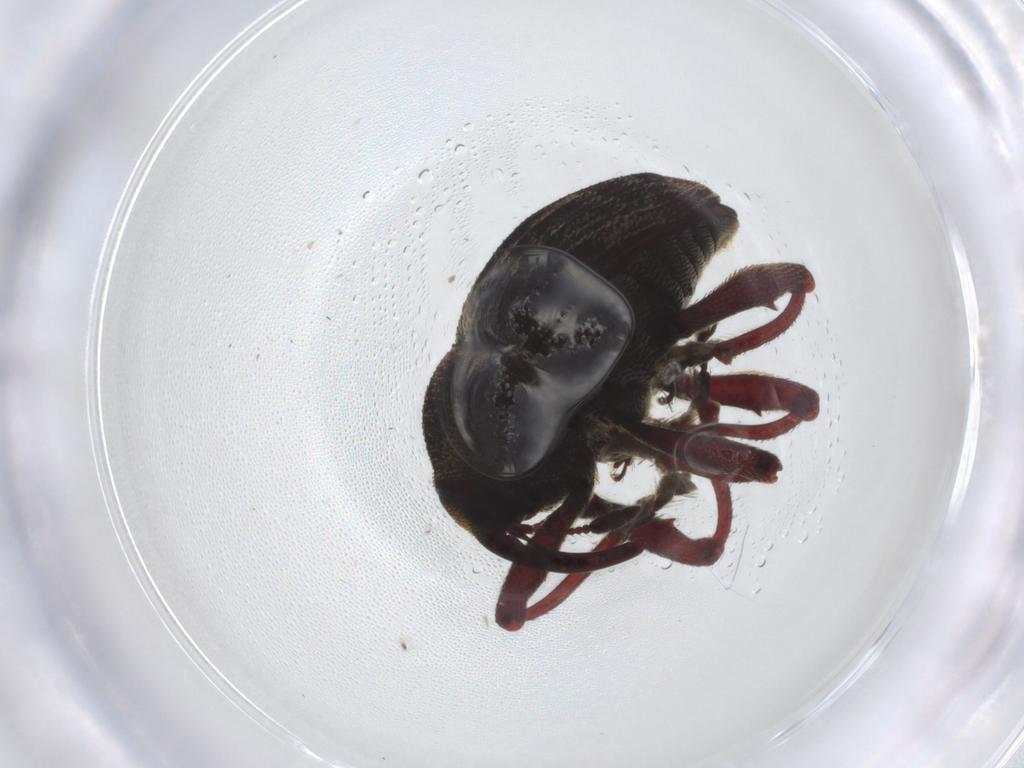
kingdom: Animalia
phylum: Arthropoda
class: Insecta
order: Coleoptera
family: Curculionidae
